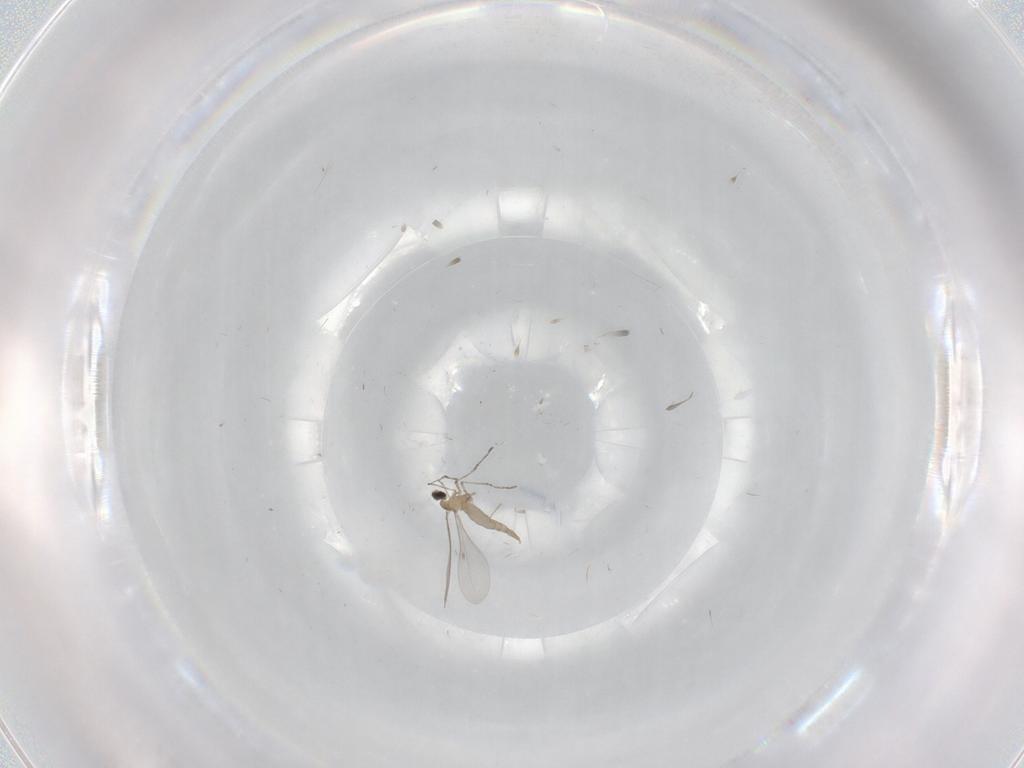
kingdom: Animalia
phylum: Arthropoda
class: Insecta
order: Diptera
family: Cecidomyiidae
